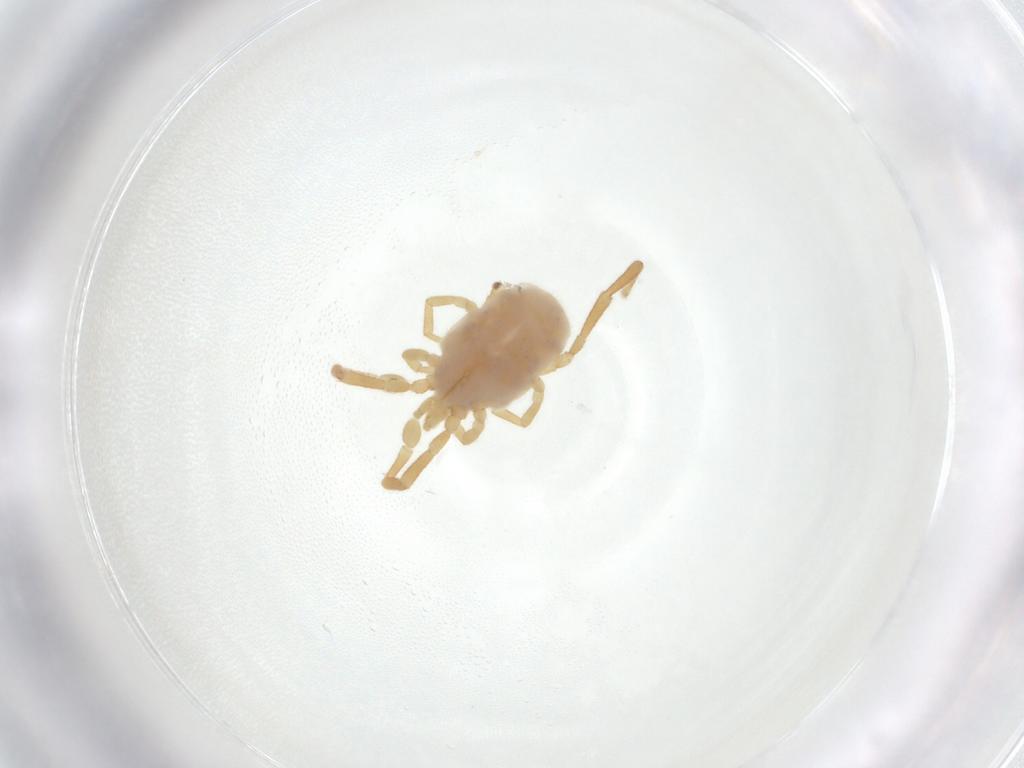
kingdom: Animalia
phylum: Arthropoda
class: Arachnida
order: Trombidiformes
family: Erythraeidae
